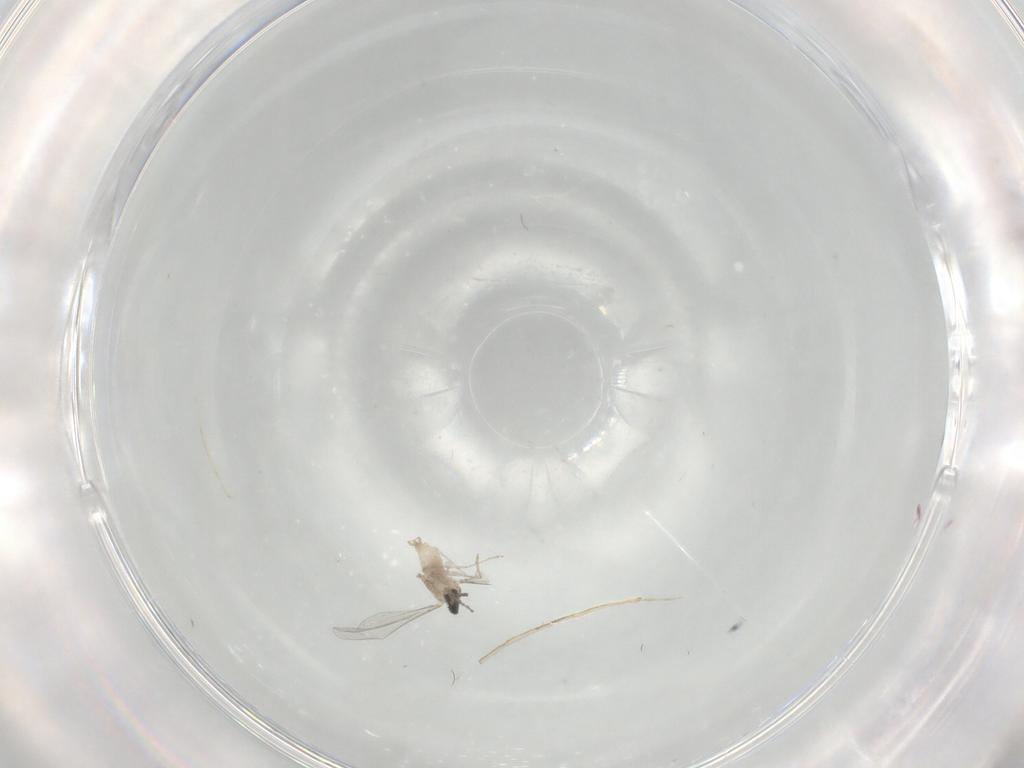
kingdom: Animalia
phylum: Arthropoda
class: Insecta
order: Diptera
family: Cecidomyiidae
